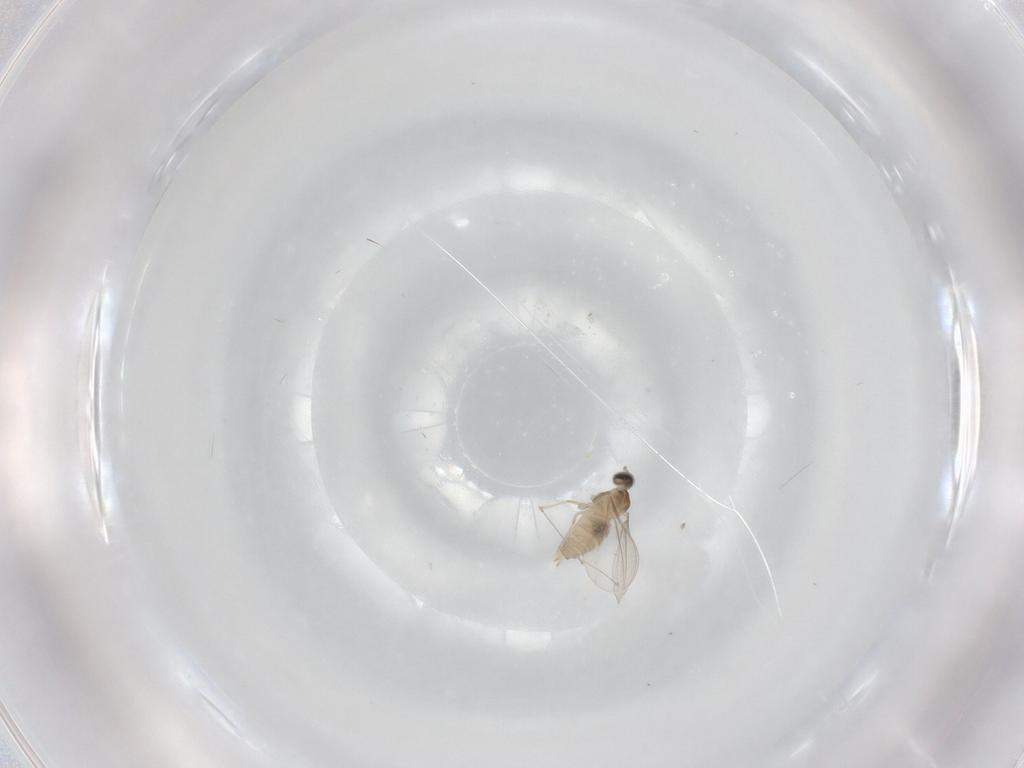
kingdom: Animalia
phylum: Arthropoda
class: Insecta
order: Diptera
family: Cecidomyiidae
